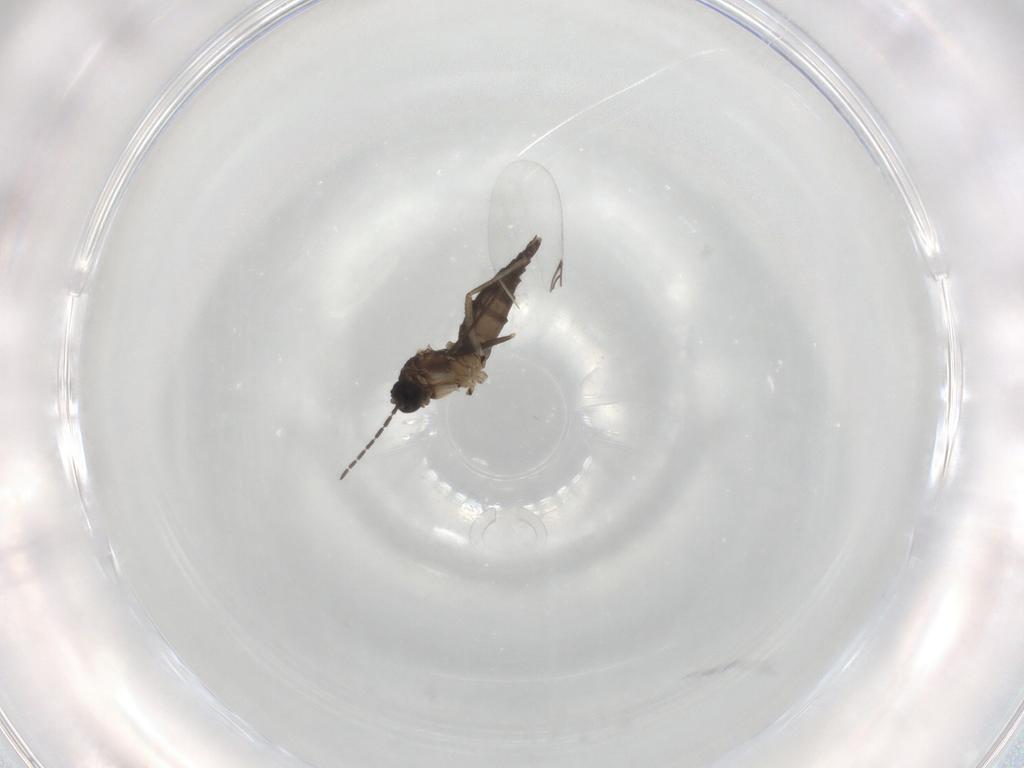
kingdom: Animalia
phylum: Arthropoda
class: Insecta
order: Diptera
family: Sciaridae
